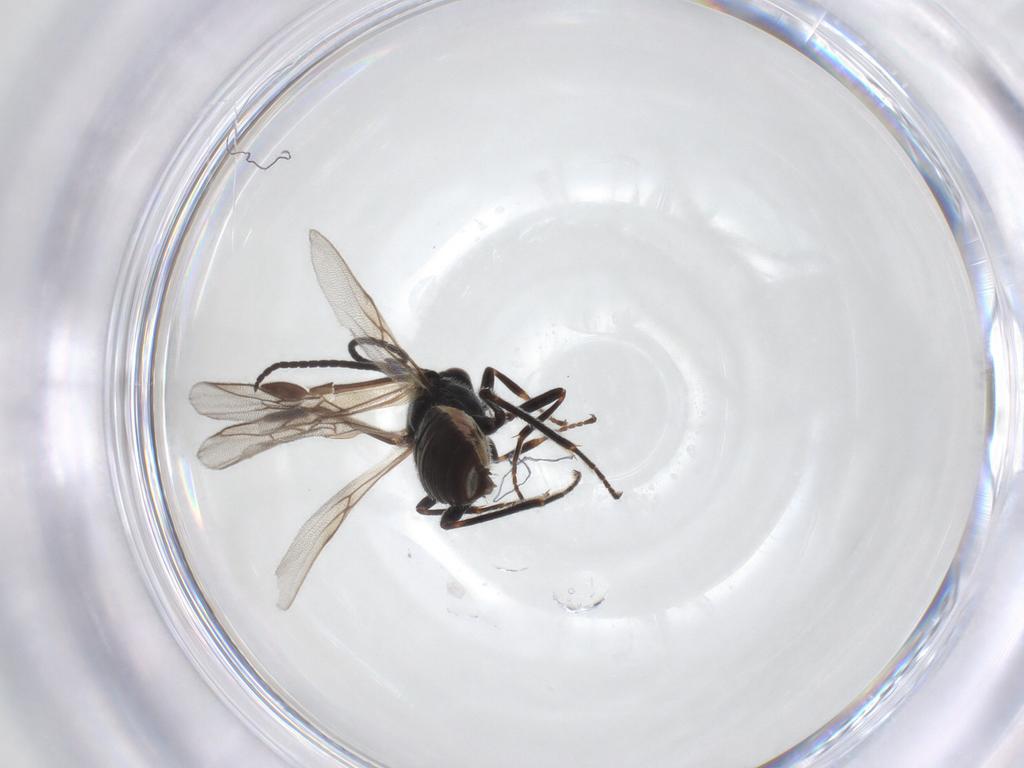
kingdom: Animalia
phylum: Arthropoda
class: Insecta
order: Hymenoptera
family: Braconidae
